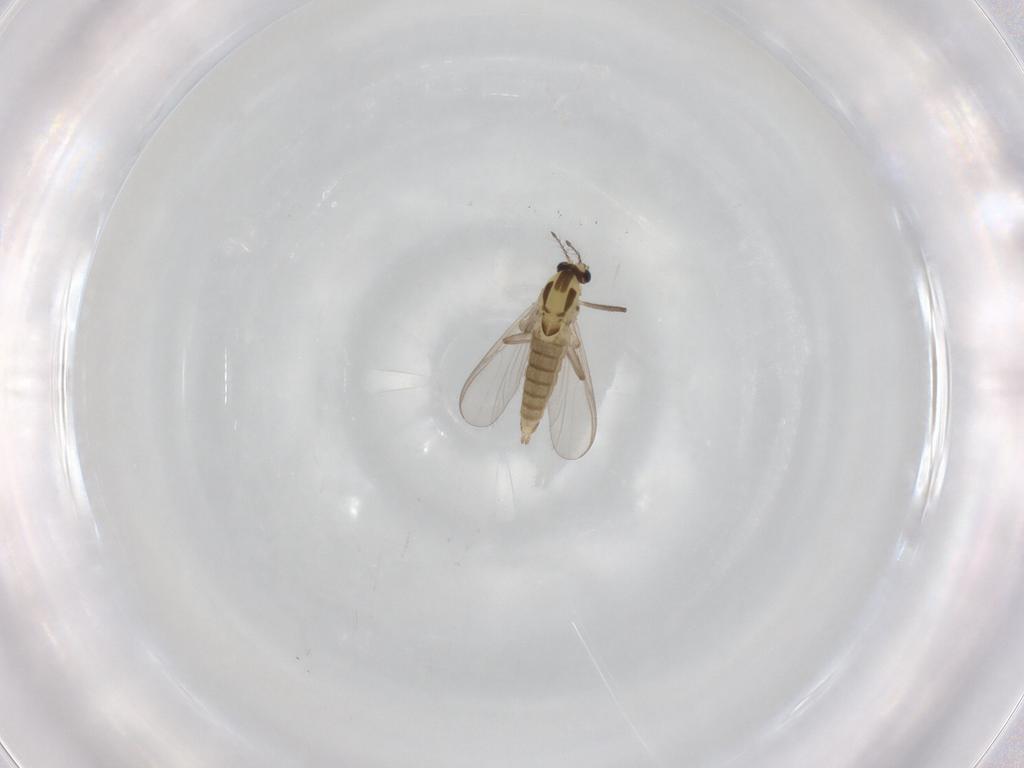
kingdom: Animalia
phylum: Arthropoda
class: Insecta
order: Diptera
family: Chironomidae
